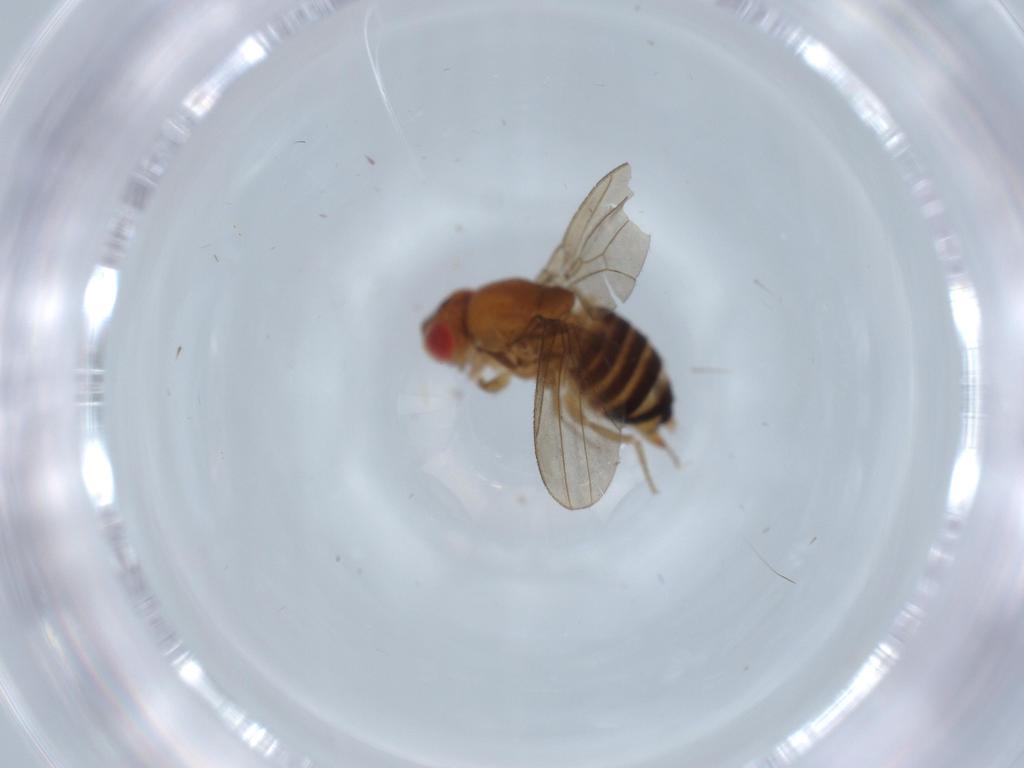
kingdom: Animalia
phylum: Arthropoda
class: Insecta
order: Diptera
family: Drosophilidae
